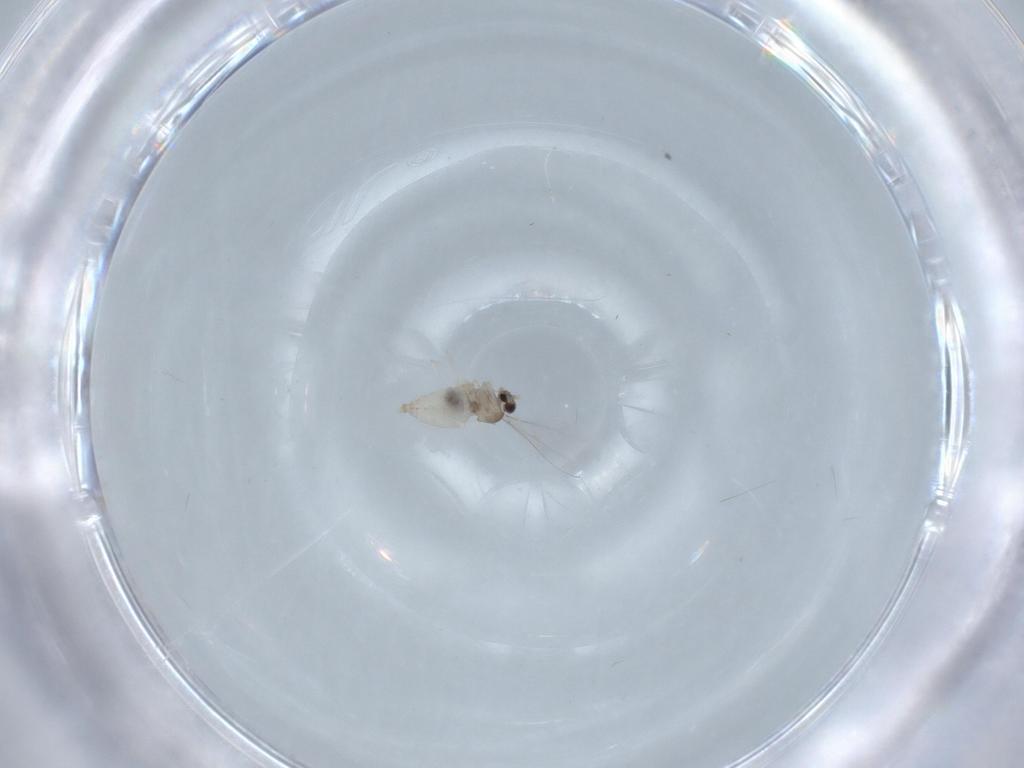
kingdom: Animalia
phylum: Arthropoda
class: Insecta
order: Diptera
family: Cecidomyiidae
